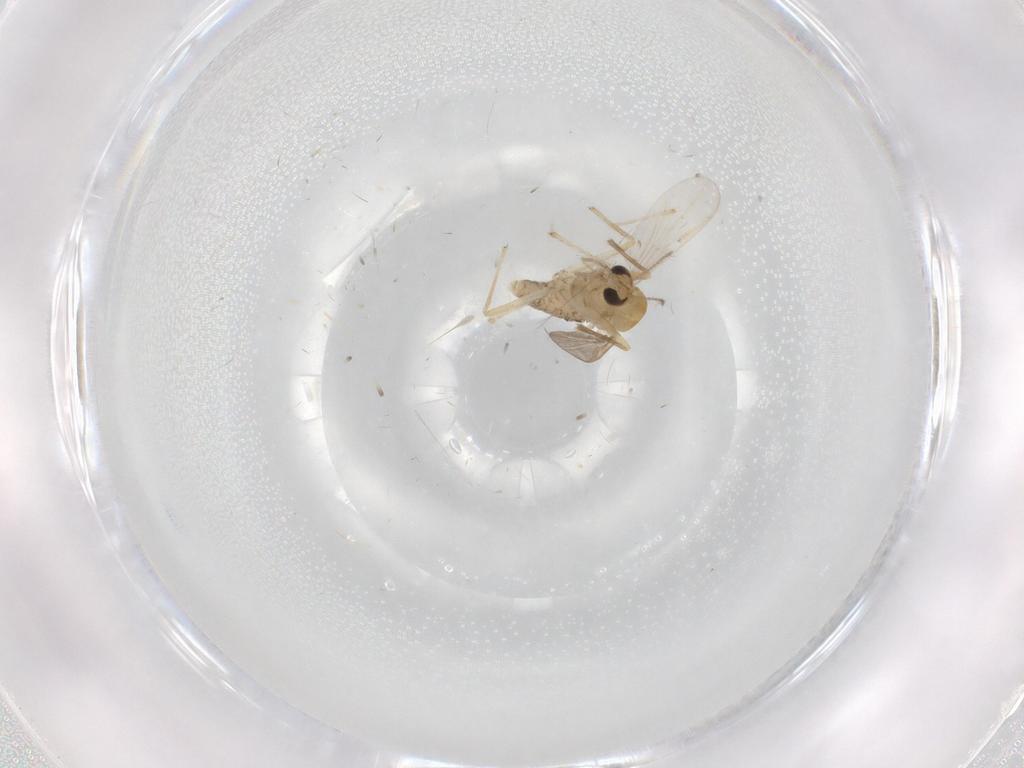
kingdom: Animalia
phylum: Arthropoda
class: Insecta
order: Diptera
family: Chironomidae
